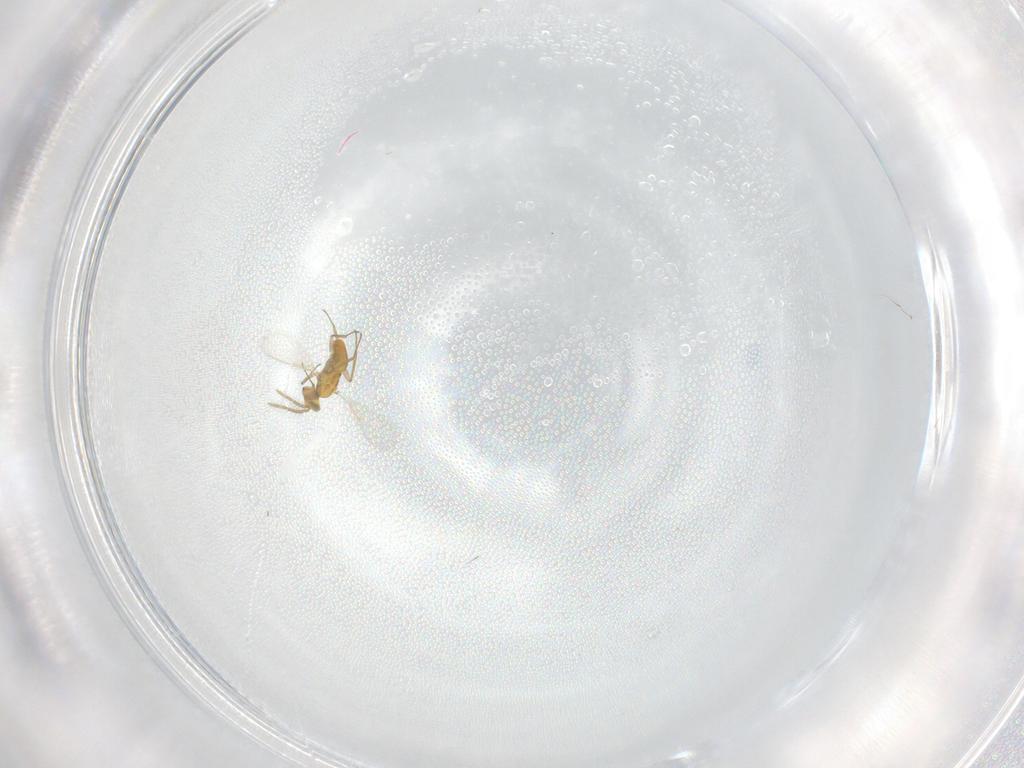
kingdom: Animalia
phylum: Arthropoda
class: Insecta
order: Hymenoptera
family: Aphelinidae
